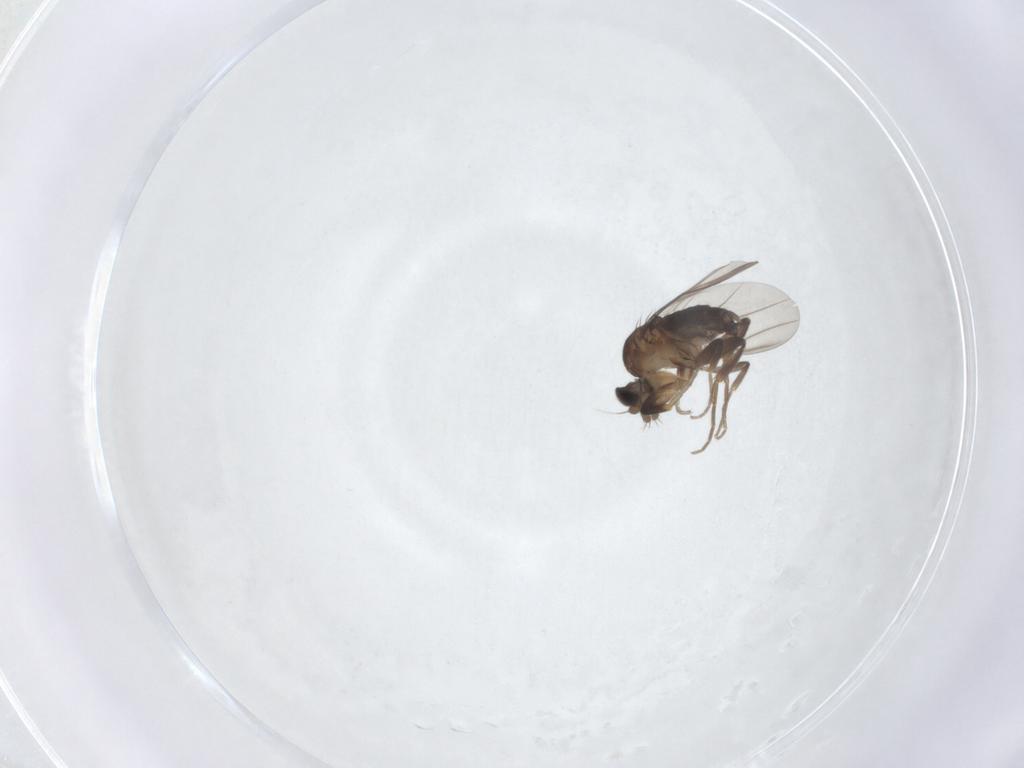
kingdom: Animalia
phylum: Arthropoda
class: Insecta
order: Diptera
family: Phoridae
